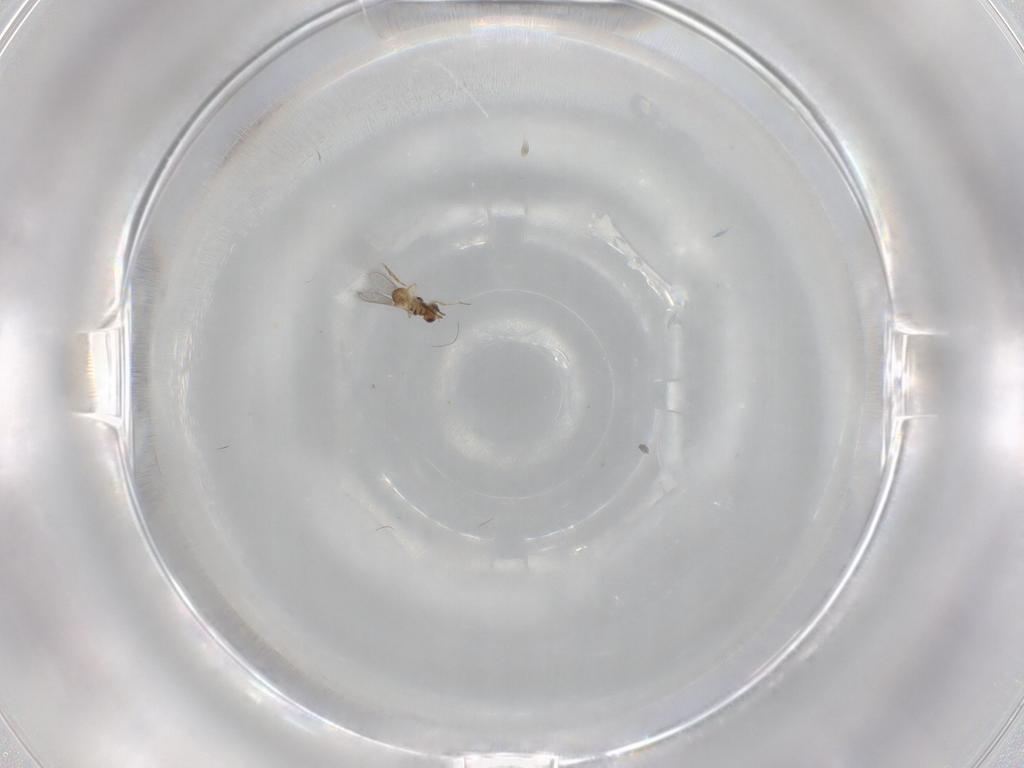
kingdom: Animalia
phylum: Arthropoda
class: Insecta
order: Hymenoptera
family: Mymaridae
